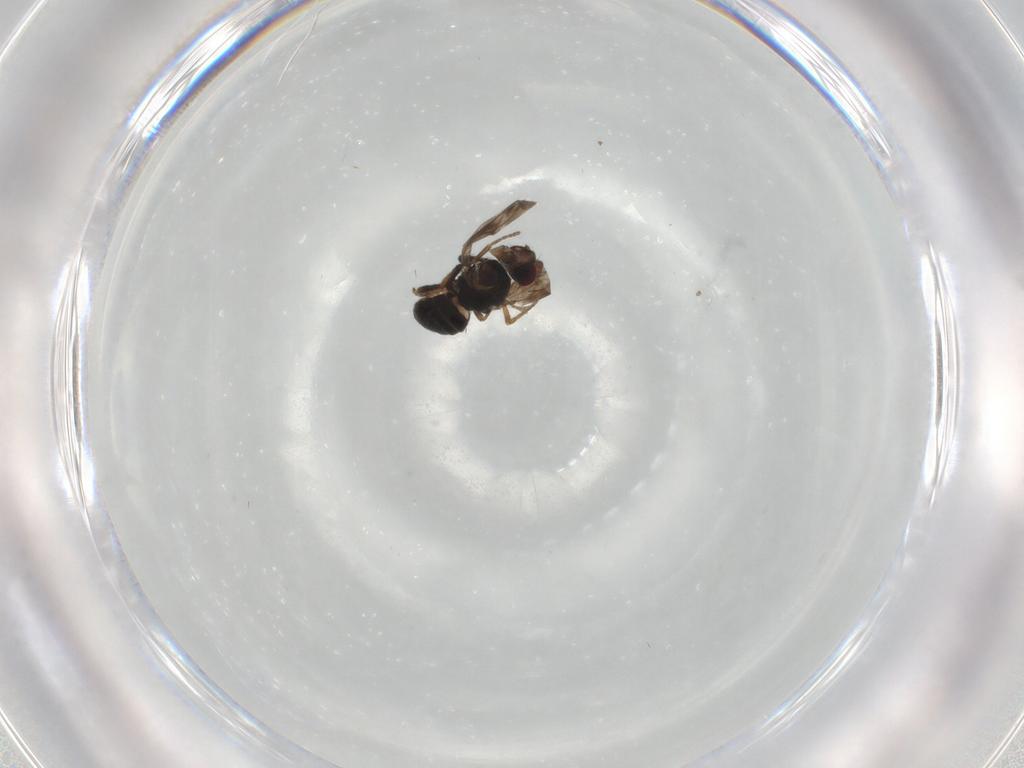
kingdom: Animalia
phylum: Arthropoda
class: Insecta
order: Diptera
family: Sphaeroceridae
